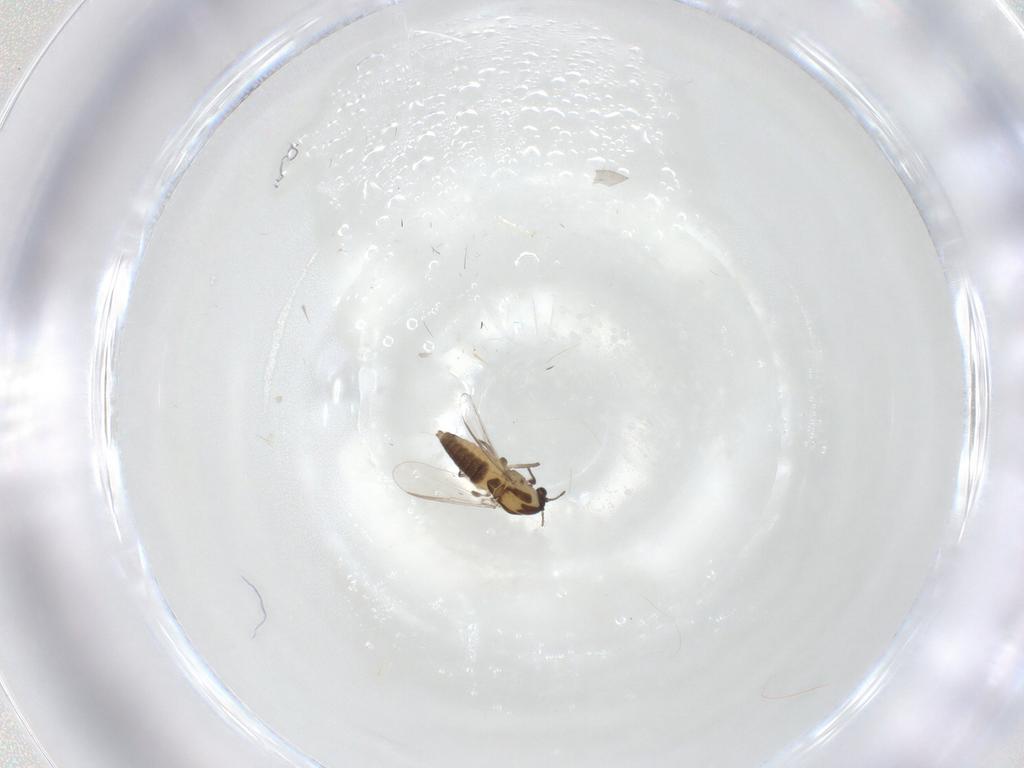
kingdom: Animalia
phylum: Arthropoda
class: Insecta
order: Diptera
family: Chironomidae
